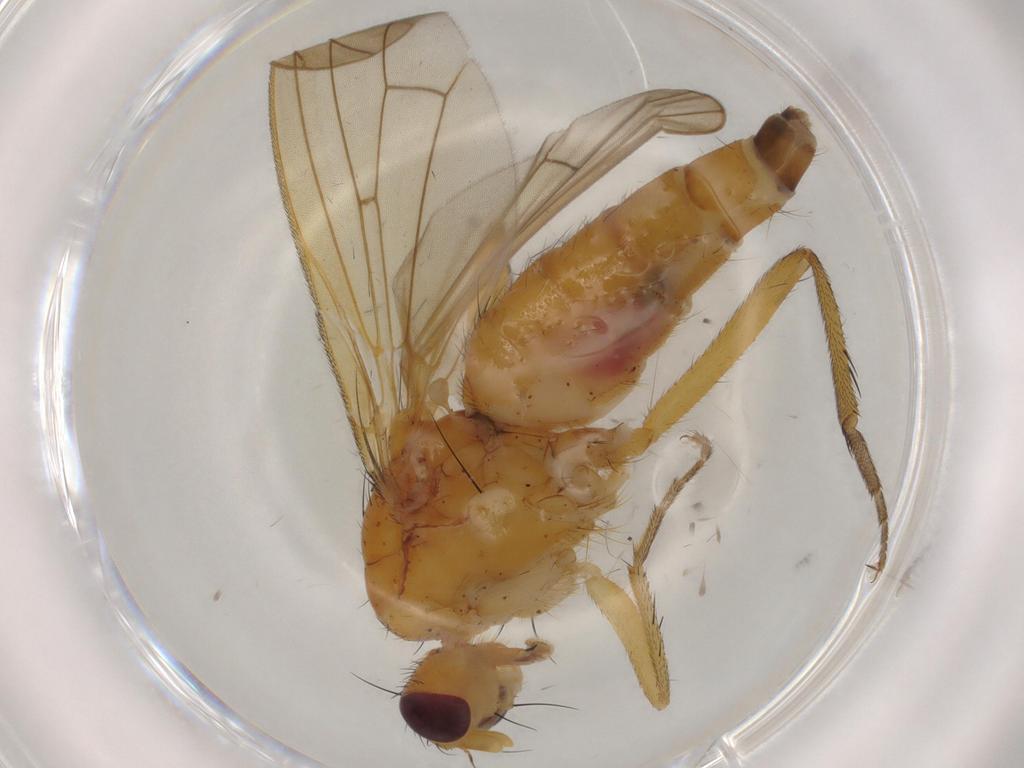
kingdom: Animalia
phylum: Arthropoda
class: Insecta
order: Diptera
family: Scathophagidae
